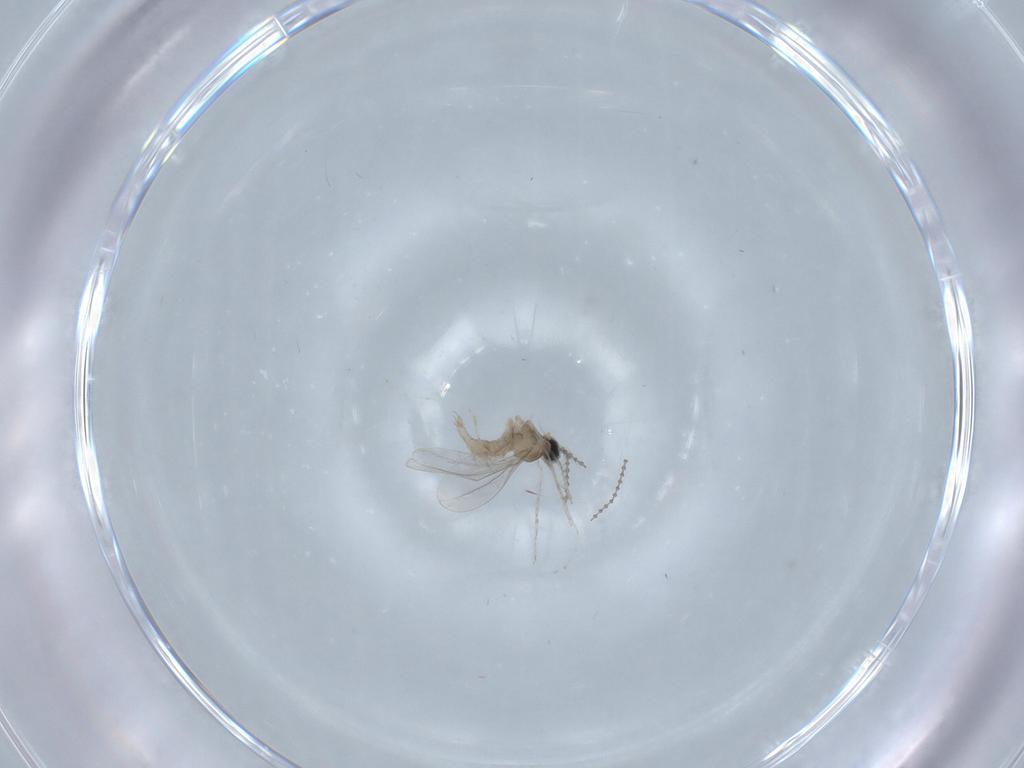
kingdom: Animalia
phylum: Arthropoda
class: Insecta
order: Diptera
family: Cecidomyiidae
